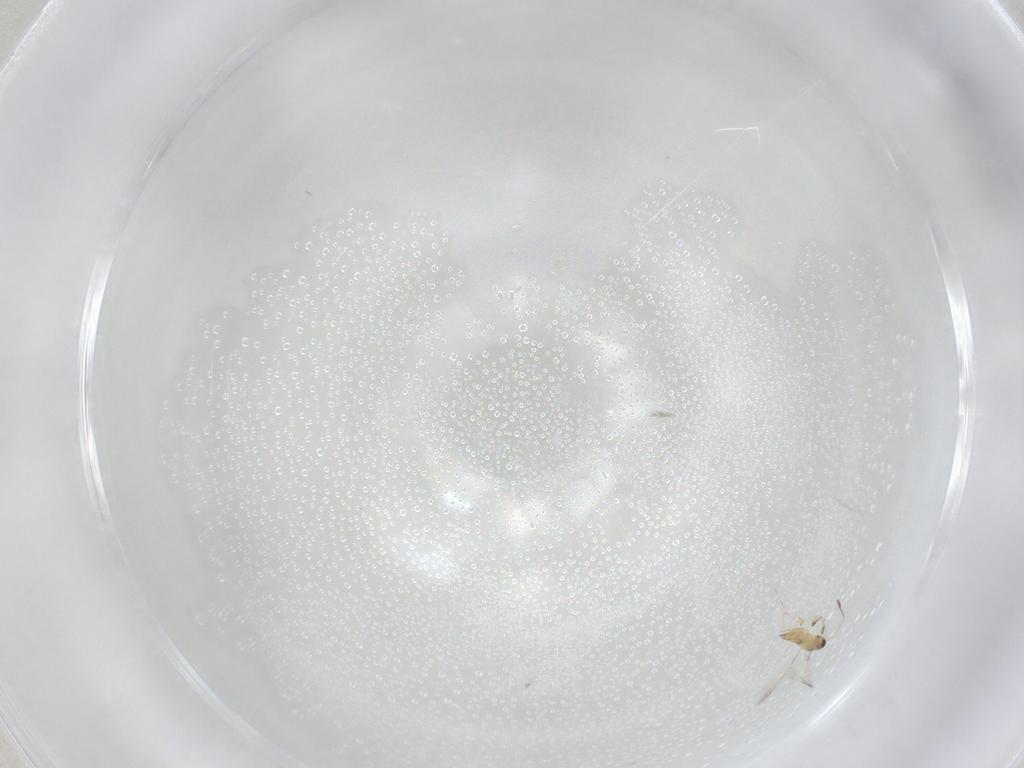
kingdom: Animalia
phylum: Arthropoda
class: Insecta
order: Hymenoptera
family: Mymaridae
